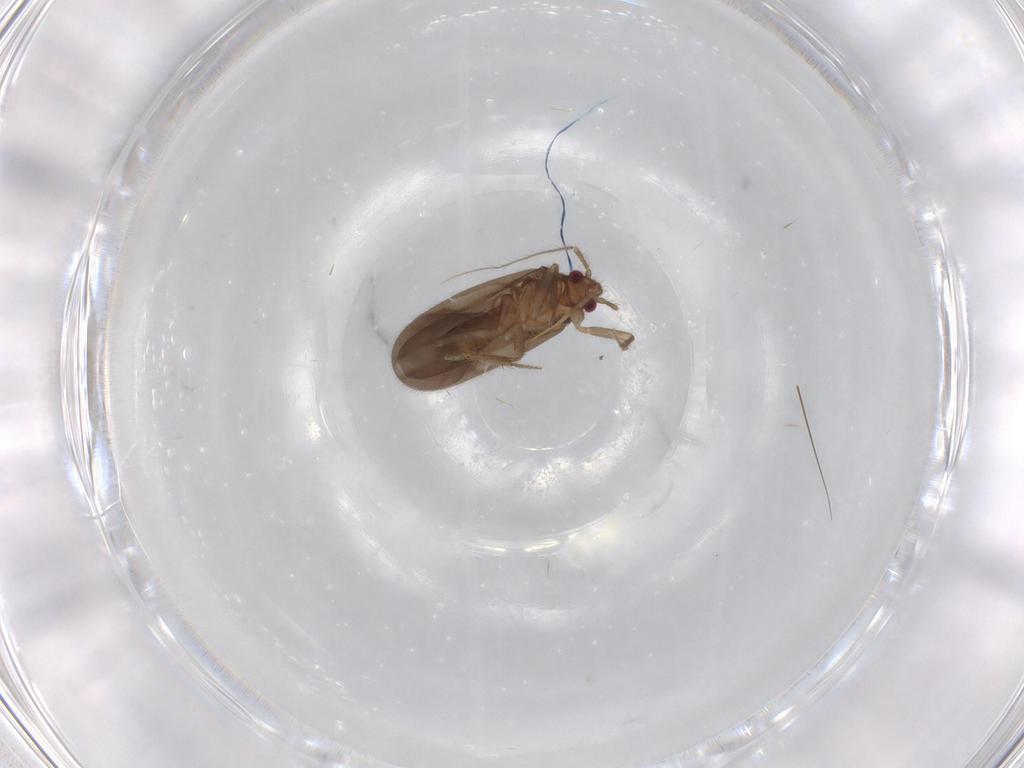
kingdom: Animalia
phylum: Arthropoda
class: Insecta
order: Hemiptera
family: Ceratocombidae
